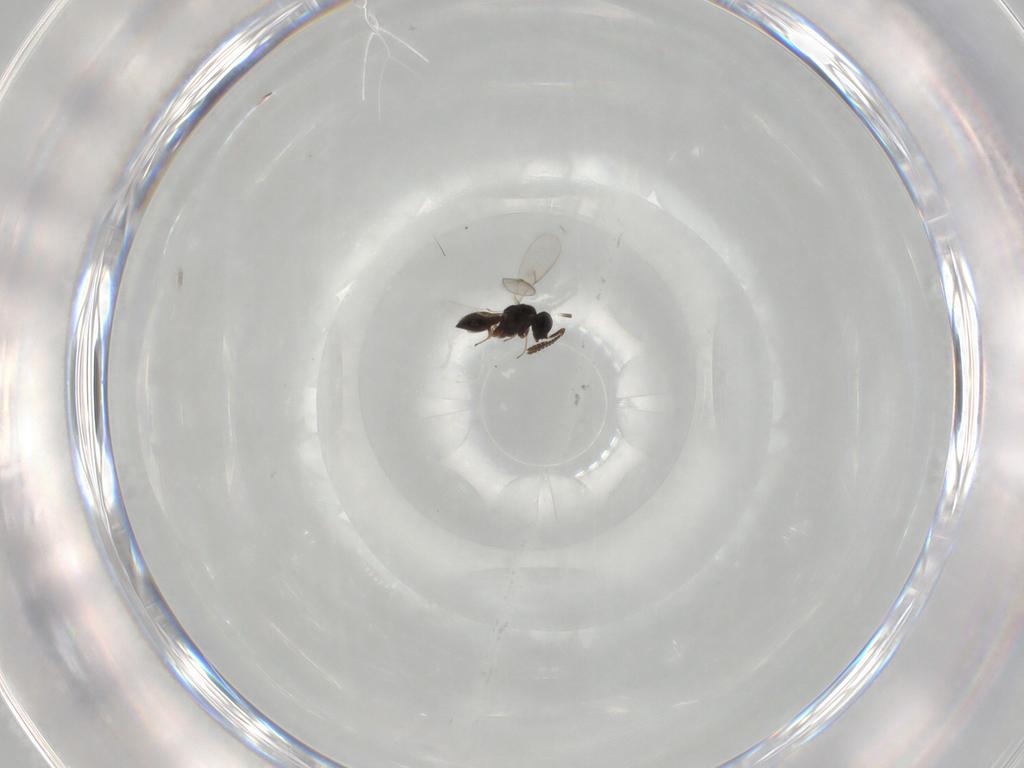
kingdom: Animalia
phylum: Arthropoda
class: Insecta
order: Hymenoptera
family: Scelionidae
